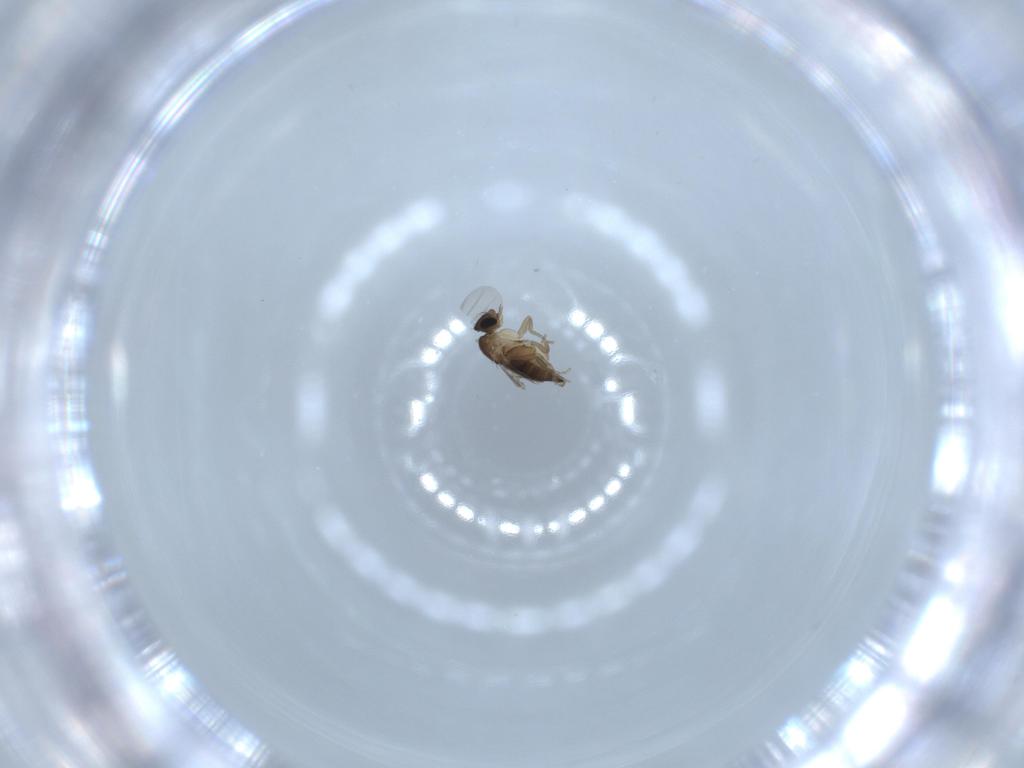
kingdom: Animalia
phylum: Arthropoda
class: Insecta
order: Diptera
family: Phoridae
